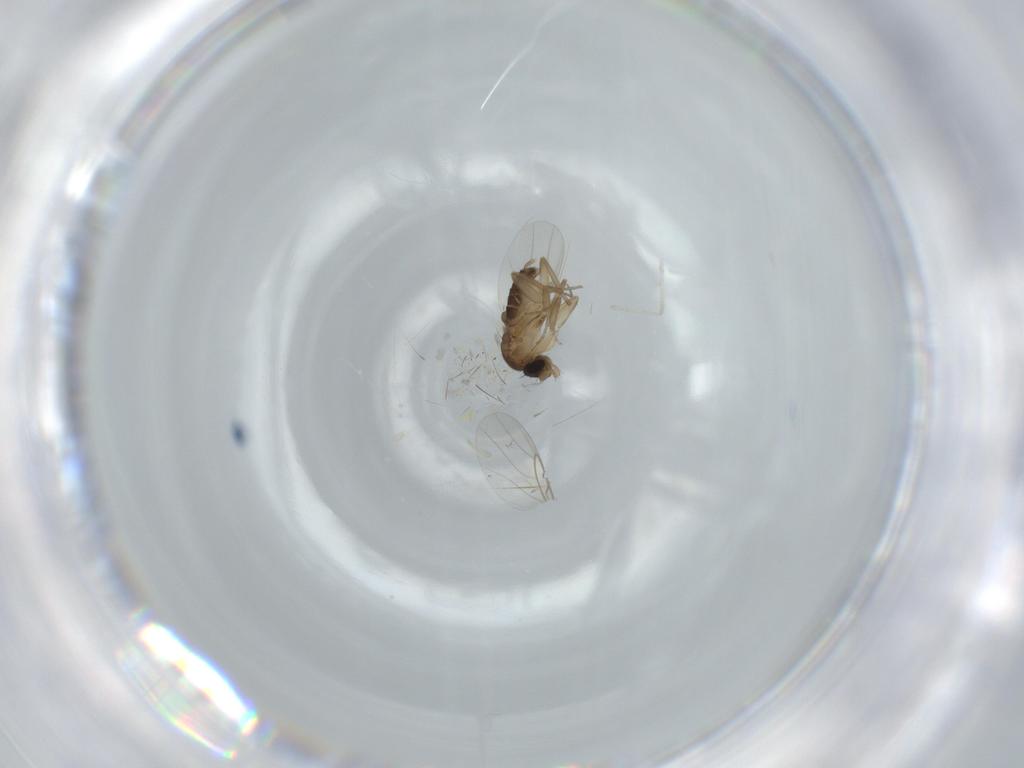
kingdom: Animalia
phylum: Arthropoda
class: Insecta
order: Diptera
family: Phoridae
